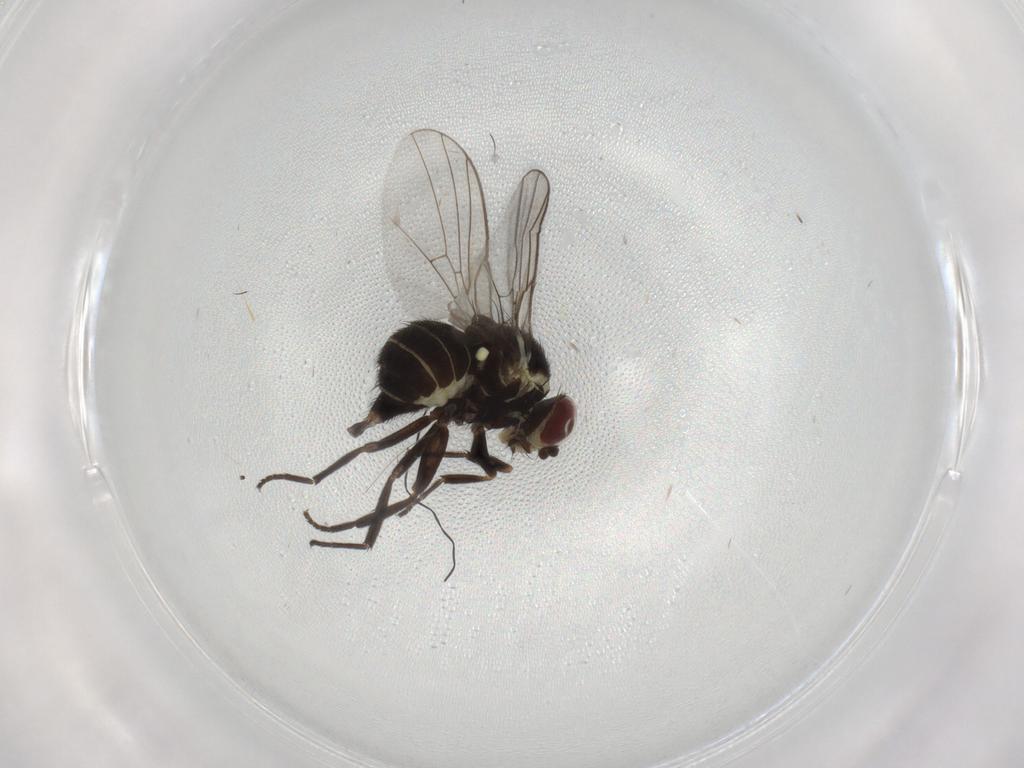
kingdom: Animalia
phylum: Arthropoda
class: Insecta
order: Diptera
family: Agromyzidae
